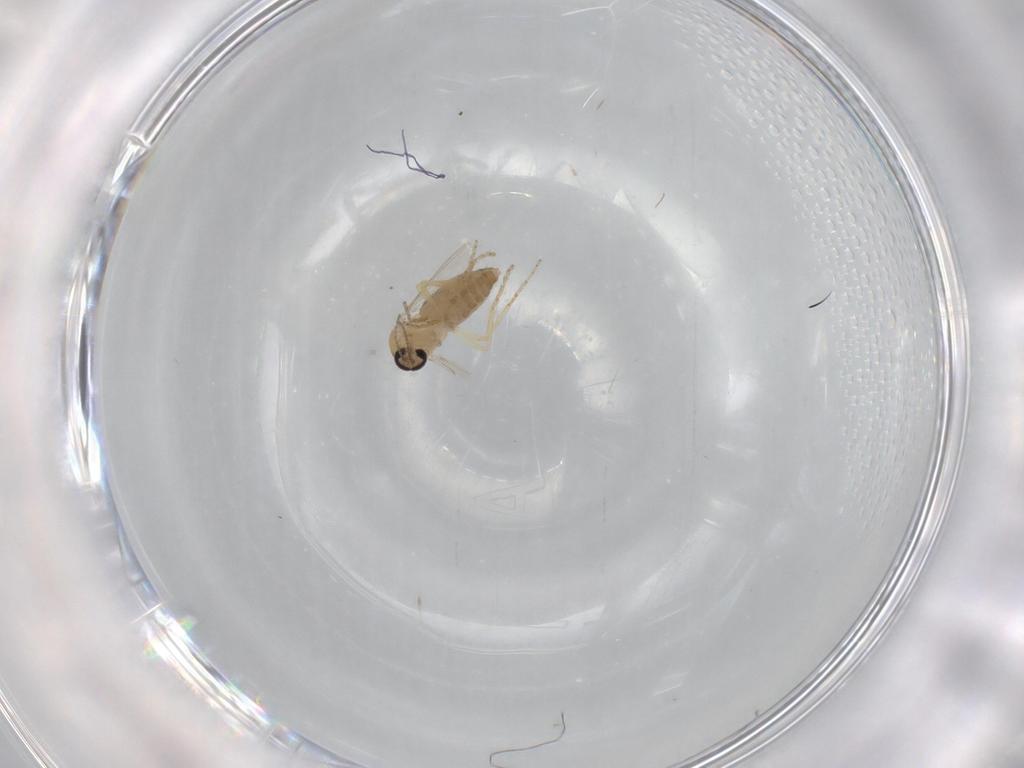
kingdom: Animalia
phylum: Arthropoda
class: Insecta
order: Diptera
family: Ceratopogonidae
